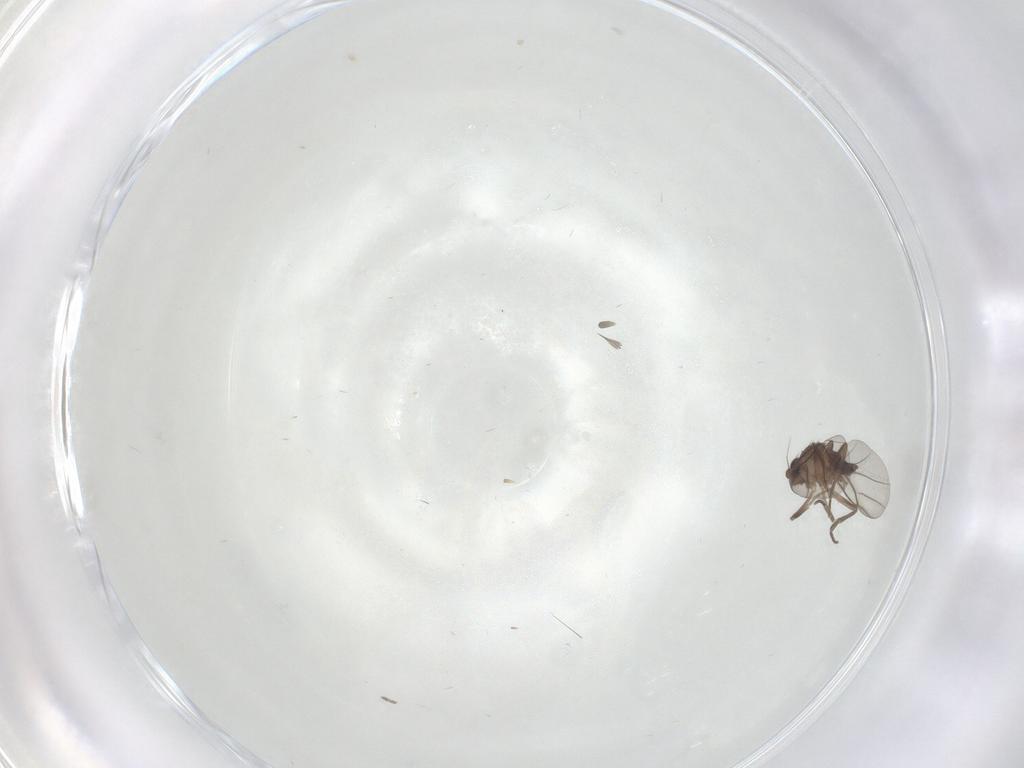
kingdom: Animalia
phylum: Arthropoda
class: Insecta
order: Diptera
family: Phoridae
